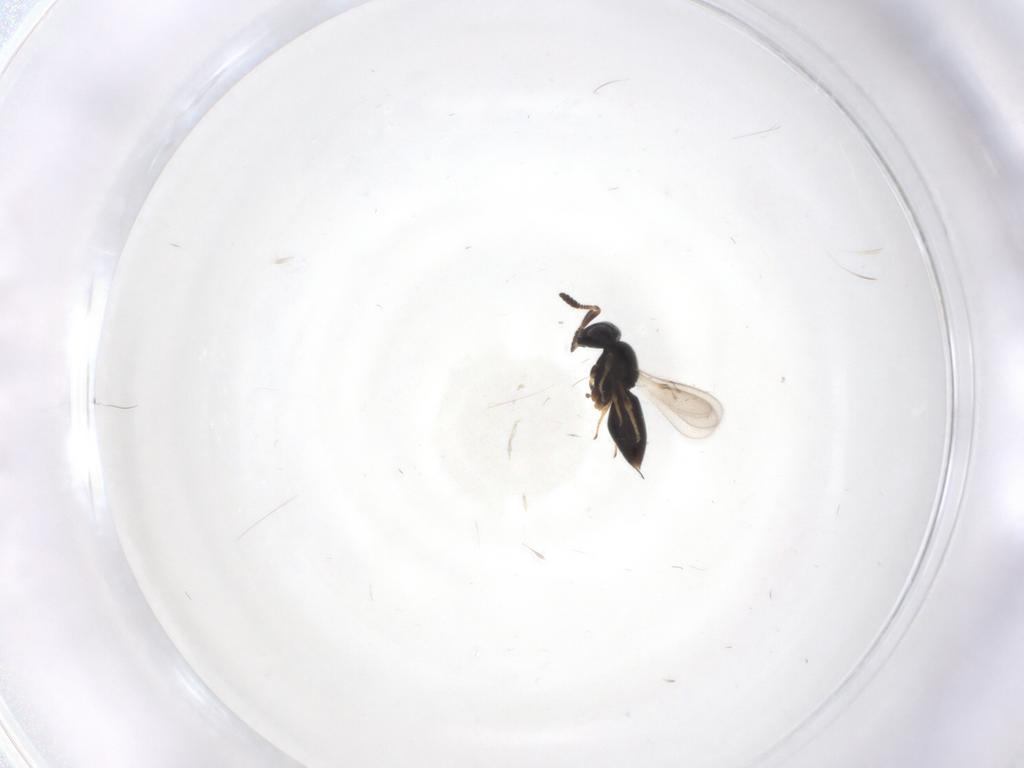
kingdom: Animalia
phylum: Arthropoda
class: Insecta
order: Hymenoptera
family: Scelionidae
